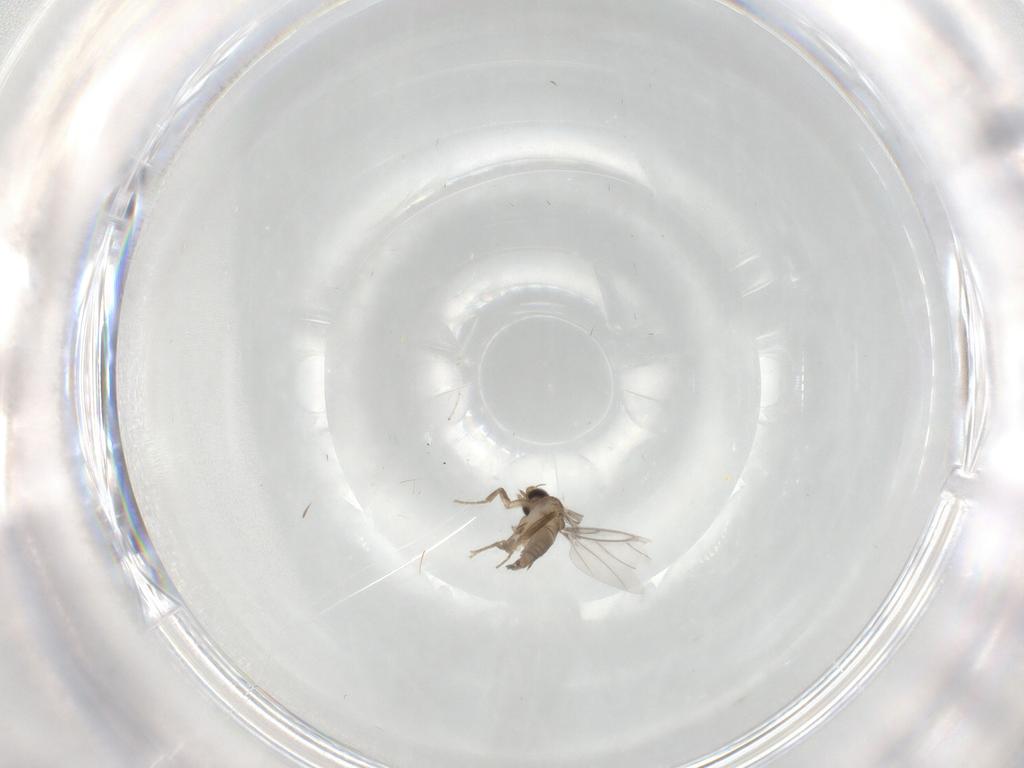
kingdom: Animalia
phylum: Arthropoda
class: Insecta
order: Diptera
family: Cecidomyiidae
